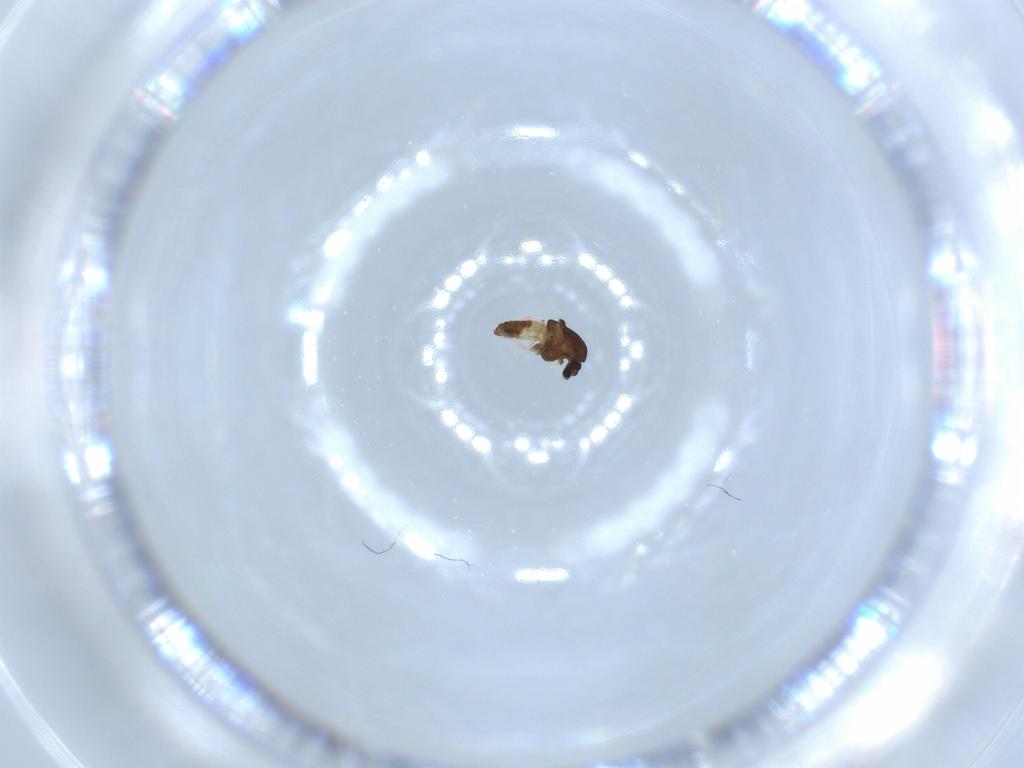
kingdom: Animalia
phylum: Arthropoda
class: Insecta
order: Diptera
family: Chironomidae
